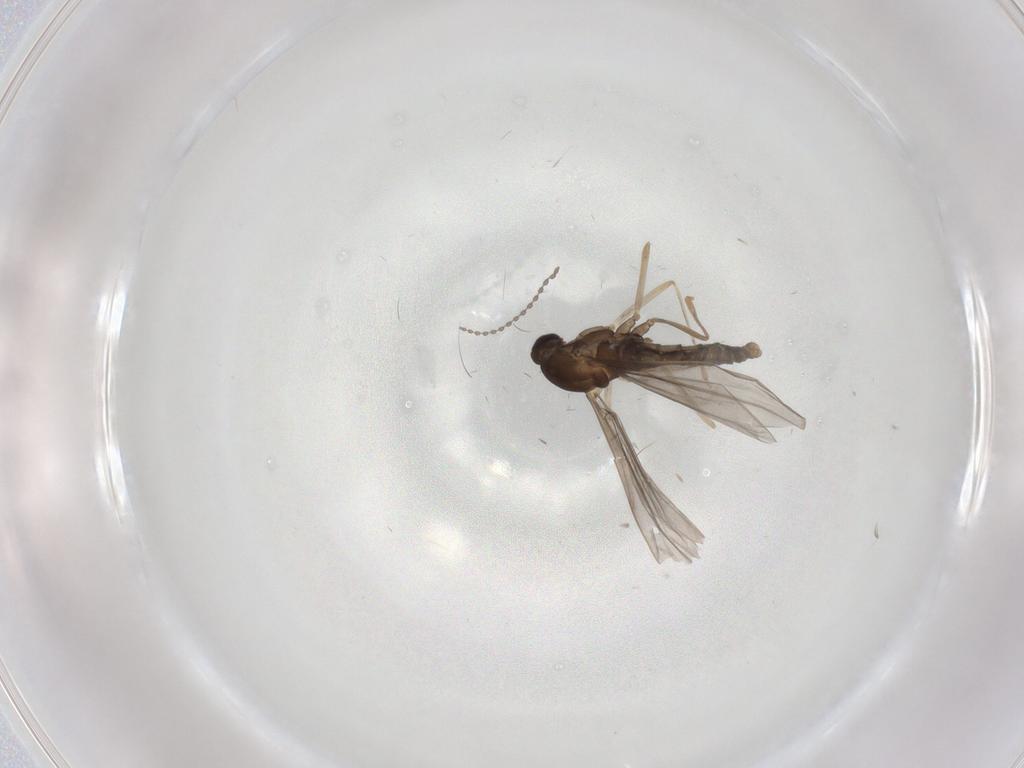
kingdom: Animalia
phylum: Arthropoda
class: Insecta
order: Diptera
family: Cecidomyiidae
